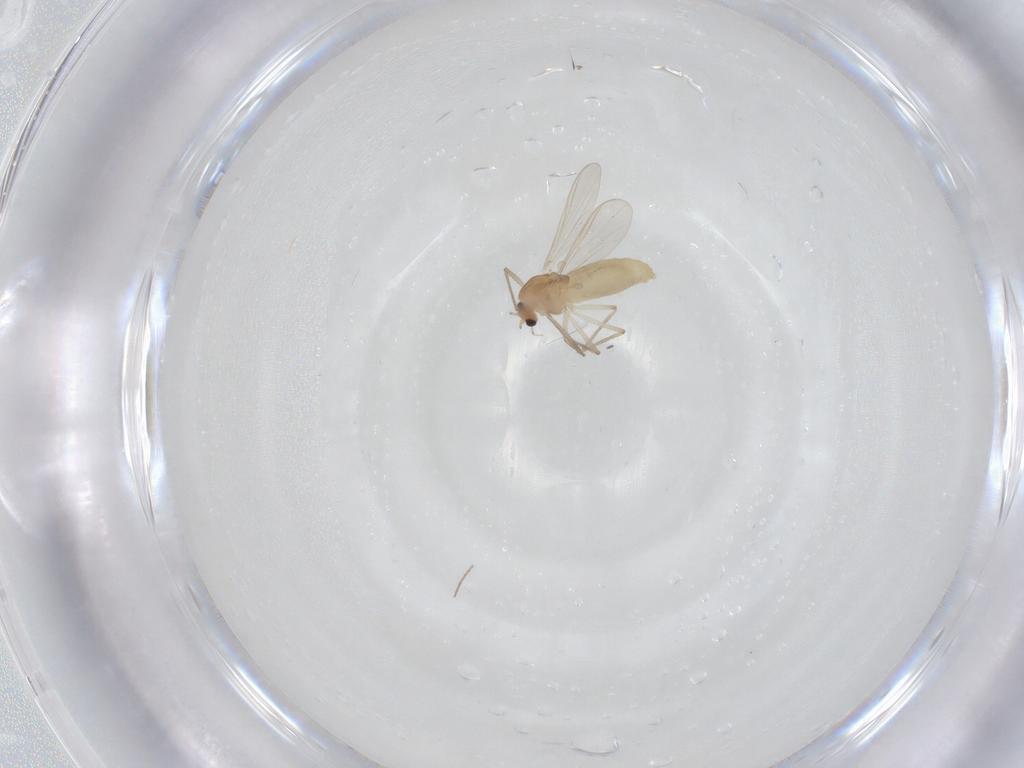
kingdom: Animalia
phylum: Arthropoda
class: Insecta
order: Diptera
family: Chironomidae
